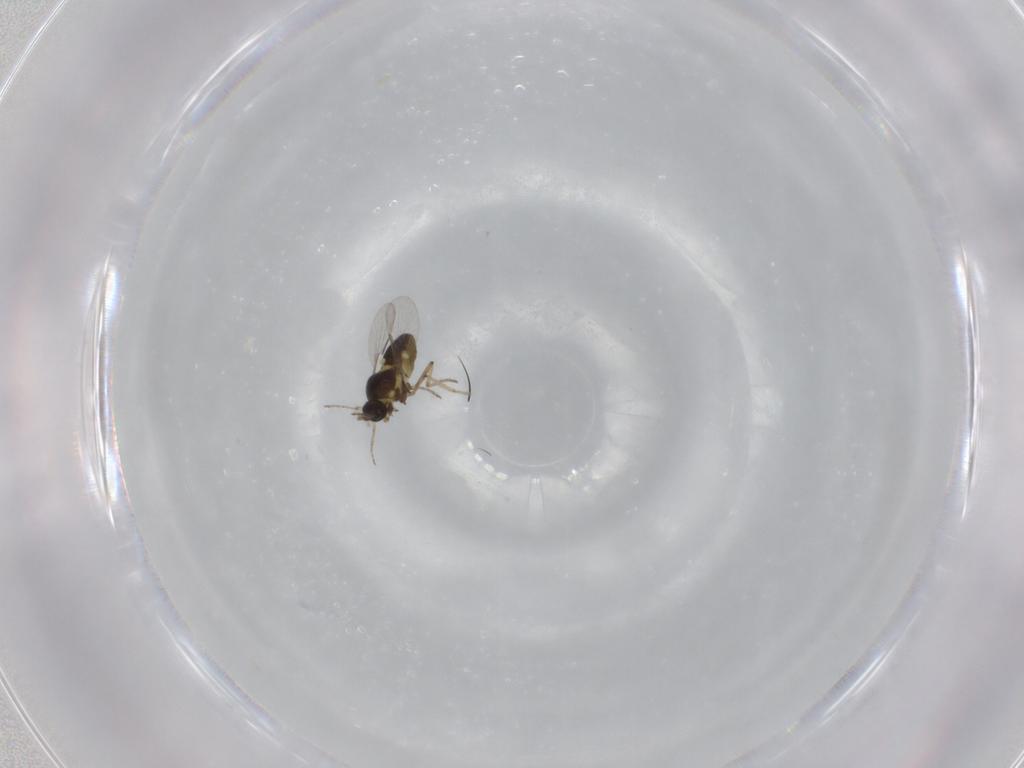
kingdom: Animalia
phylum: Arthropoda
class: Insecta
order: Diptera
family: Ceratopogonidae
